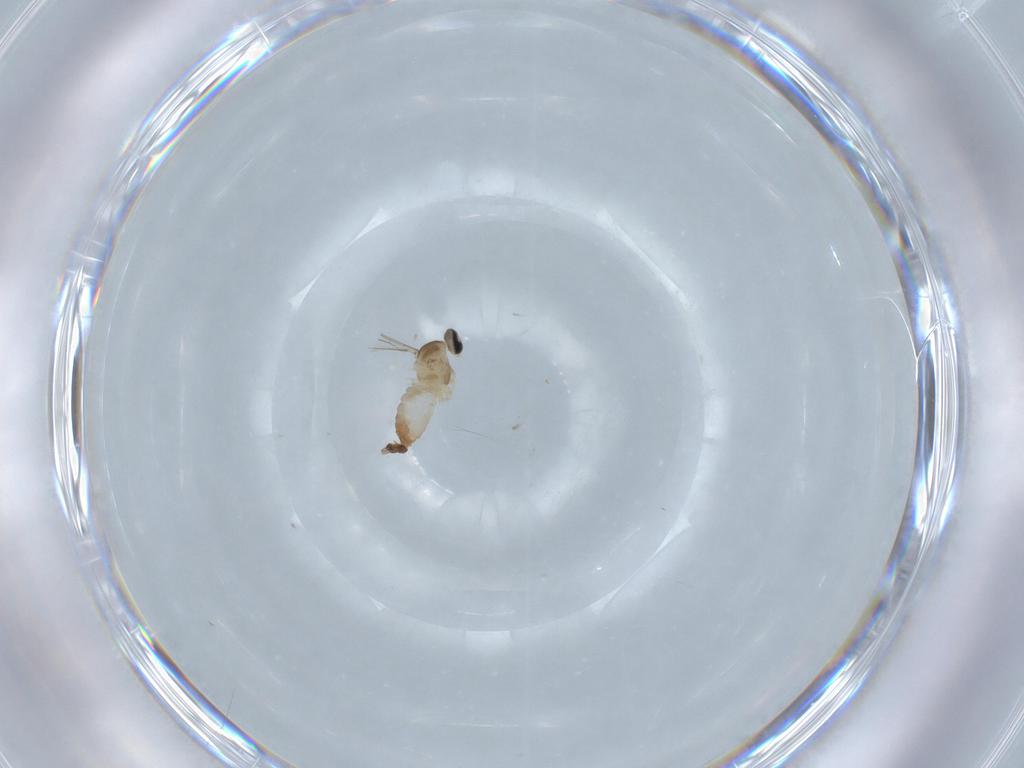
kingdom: Animalia
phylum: Arthropoda
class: Insecta
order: Diptera
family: Cecidomyiidae
